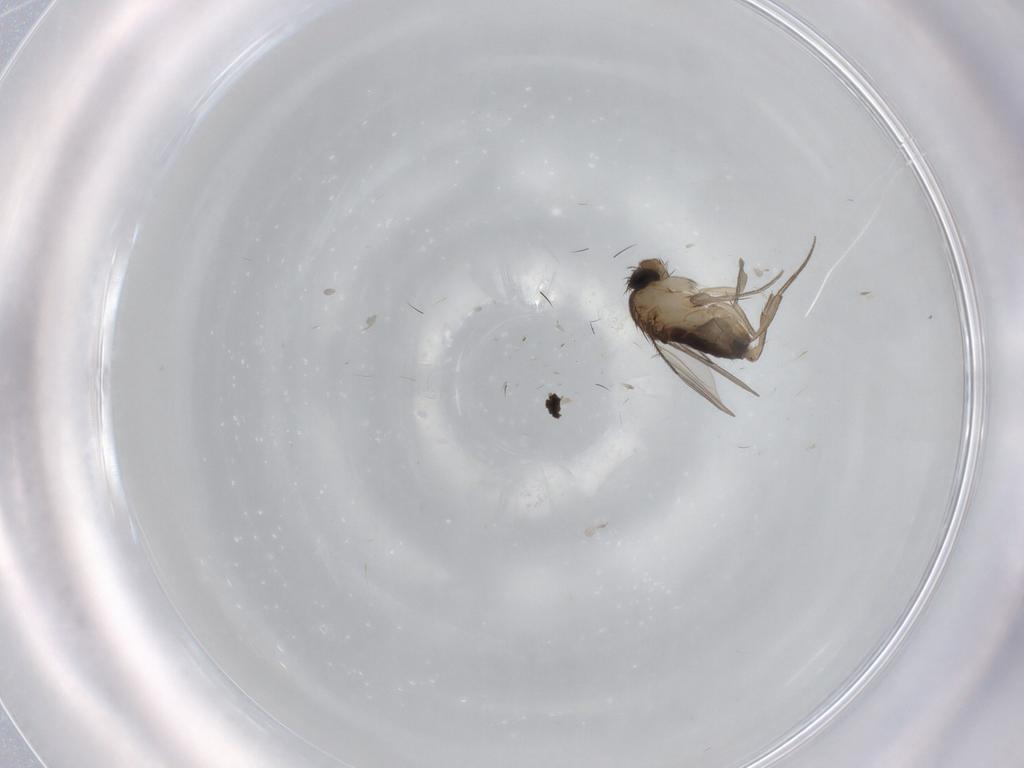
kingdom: Animalia
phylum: Arthropoda
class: Insecta
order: Diptera
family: Phoridae
